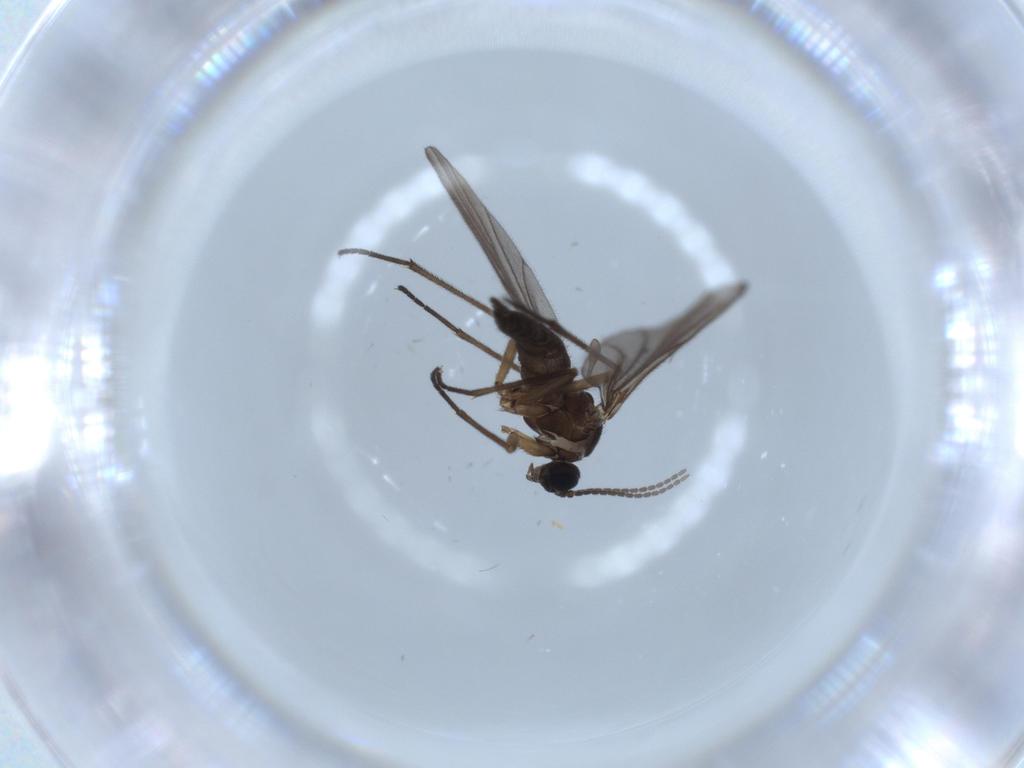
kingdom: Animalia
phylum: Arthropoda
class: Insecta
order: Diptera
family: Sciaridae
